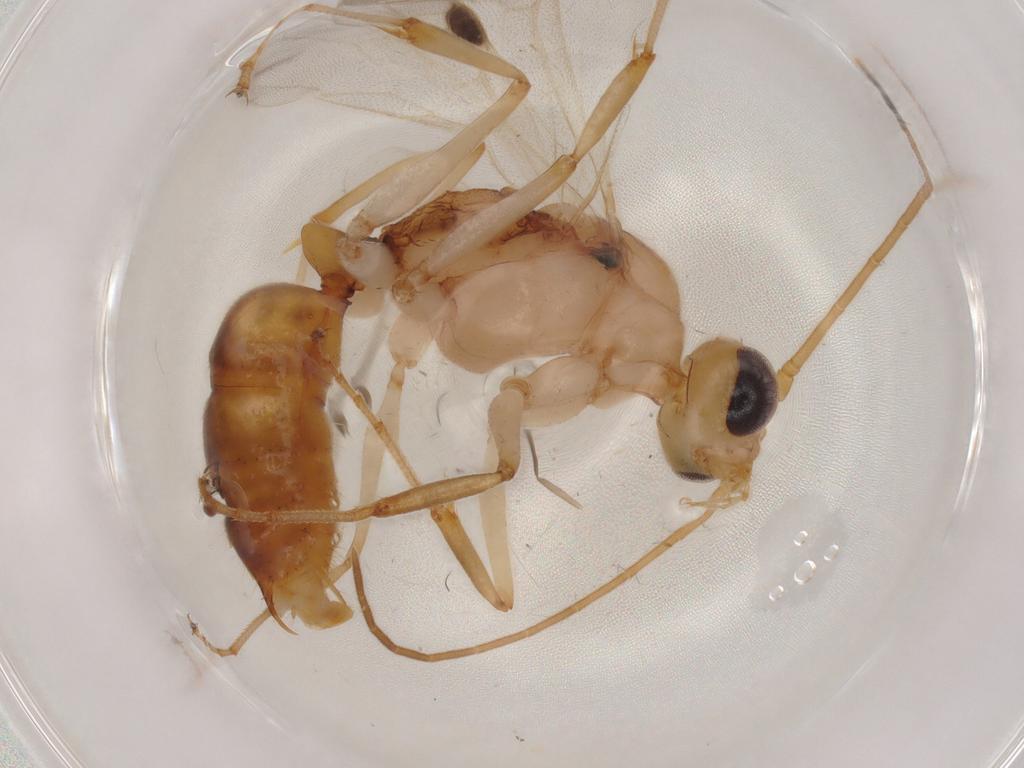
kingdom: Animalia
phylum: Arthropoda
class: Insecta
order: Hymenoptera
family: Formicidae
